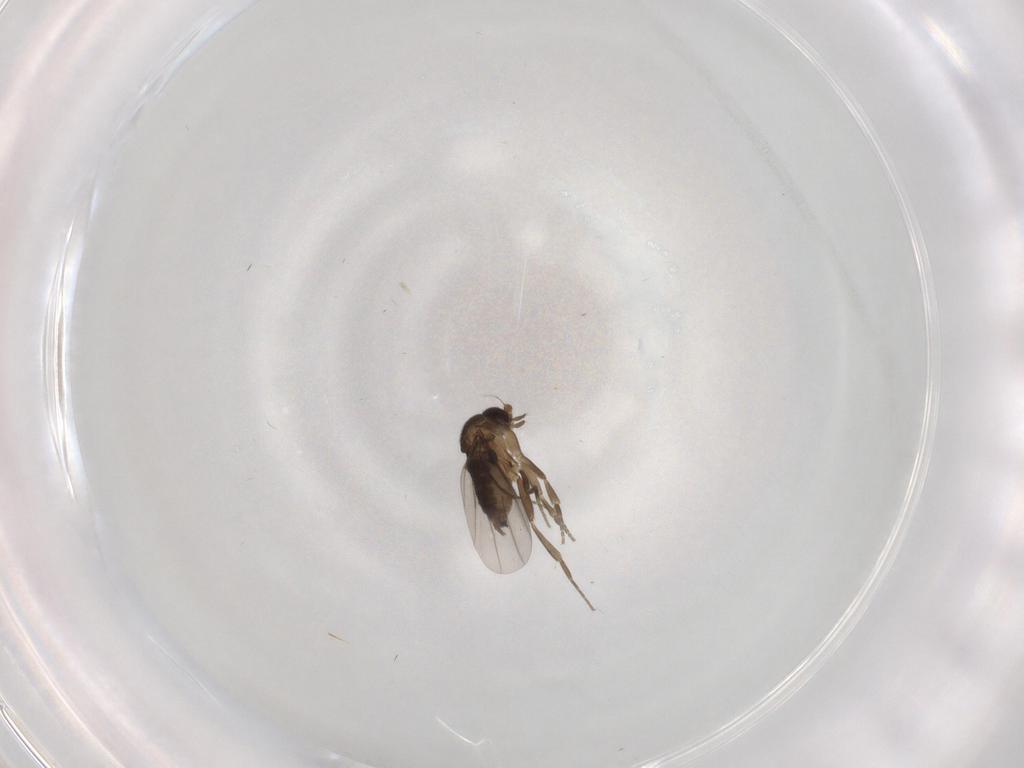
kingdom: Animalia
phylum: Arthropoda
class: Insecta
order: Diptera
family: Phoridae
